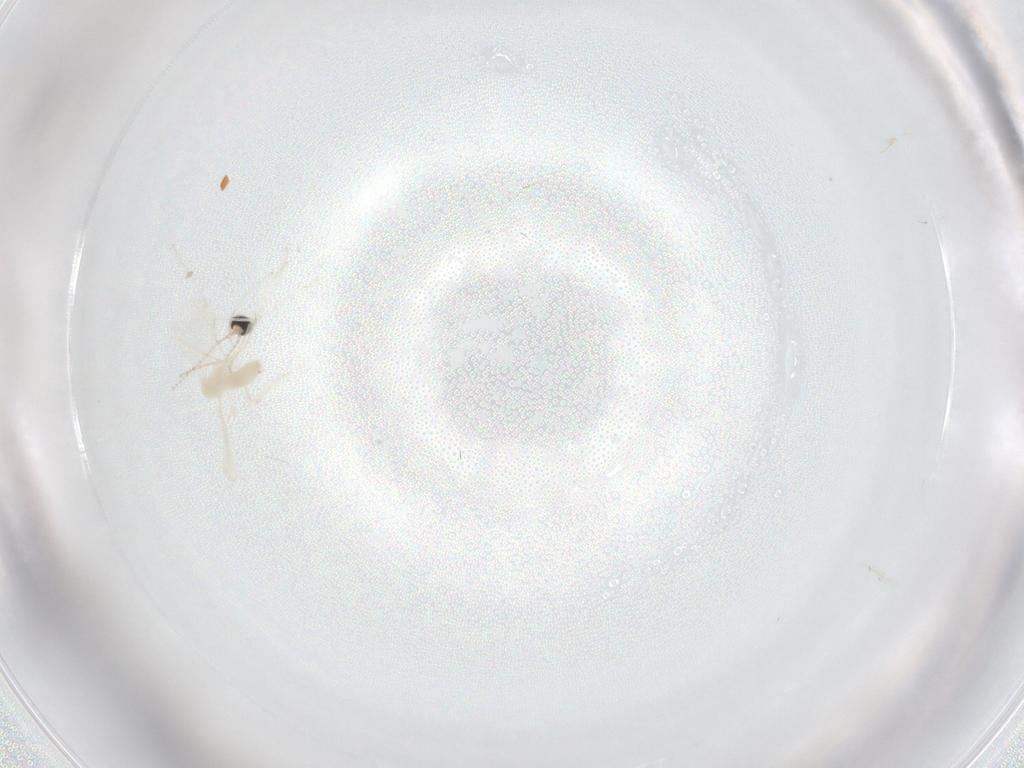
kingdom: Animalia
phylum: Arthropoda
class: Insecta
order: Diptera
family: Cecidomyiidae
